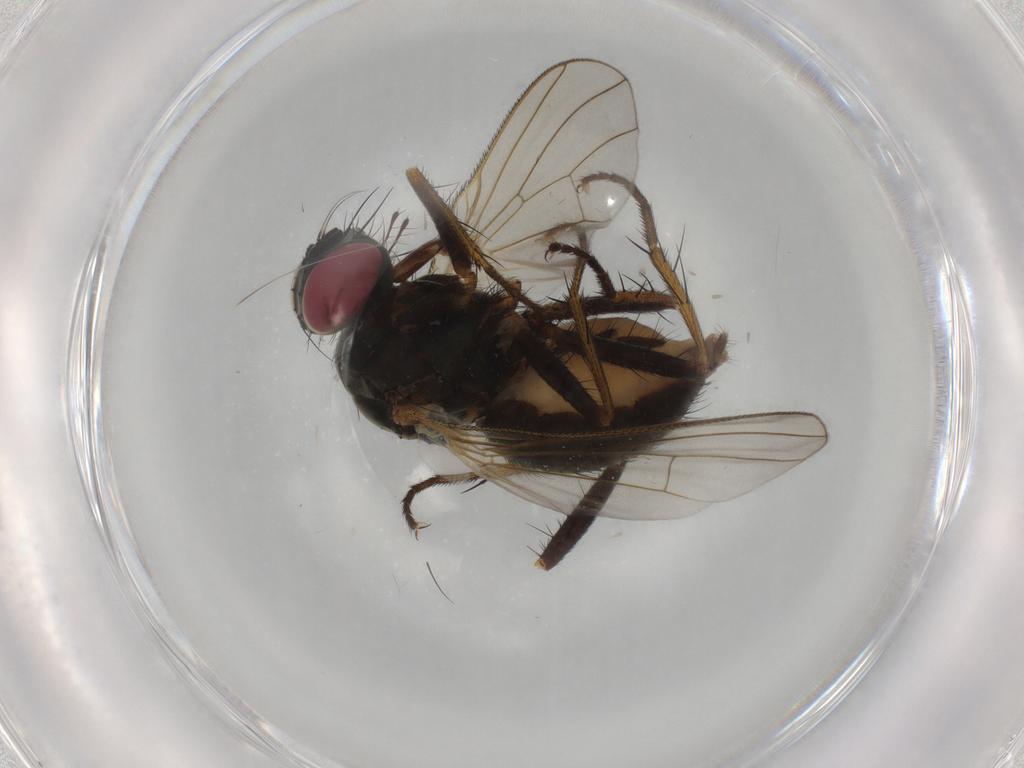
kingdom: Animalia
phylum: Arthropoda
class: Insecta
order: Diptera
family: Muscidae
